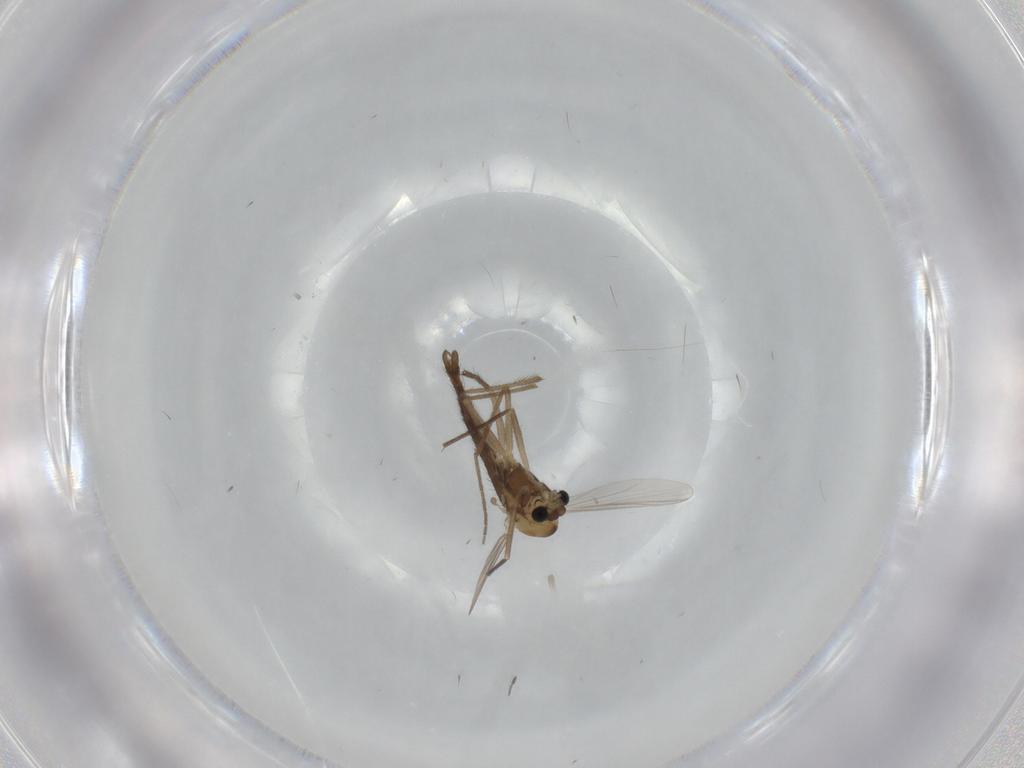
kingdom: Animalia
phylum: Arthropoda
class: Insecta
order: Diptera
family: Chironomidae
